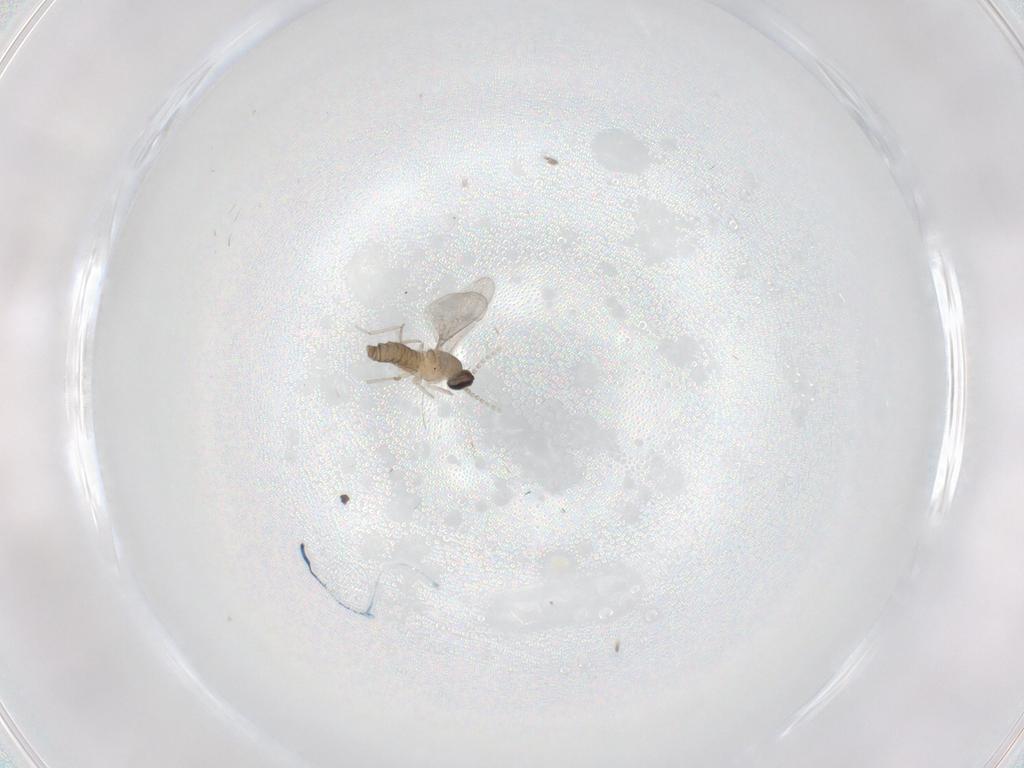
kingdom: Animalia
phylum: Arthropoda
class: Insecta
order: Diptera
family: Cecidomyiidae
